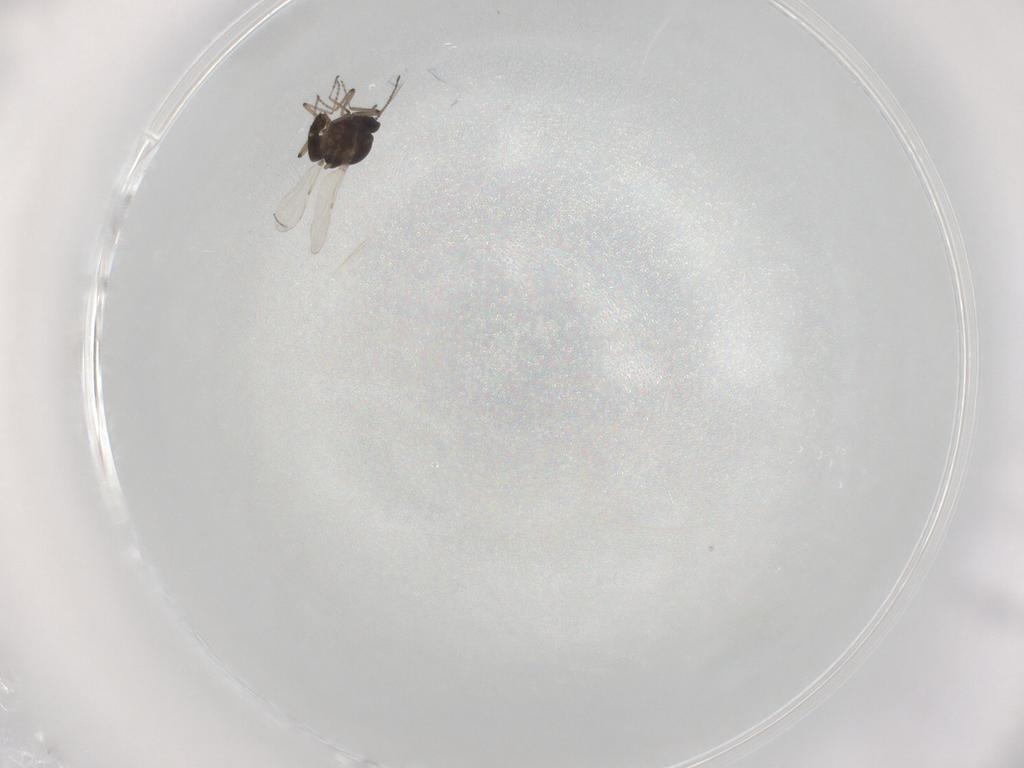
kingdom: Animalia
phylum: Arthropoda
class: Insecta
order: Diptera
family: Ceratopogonidae
